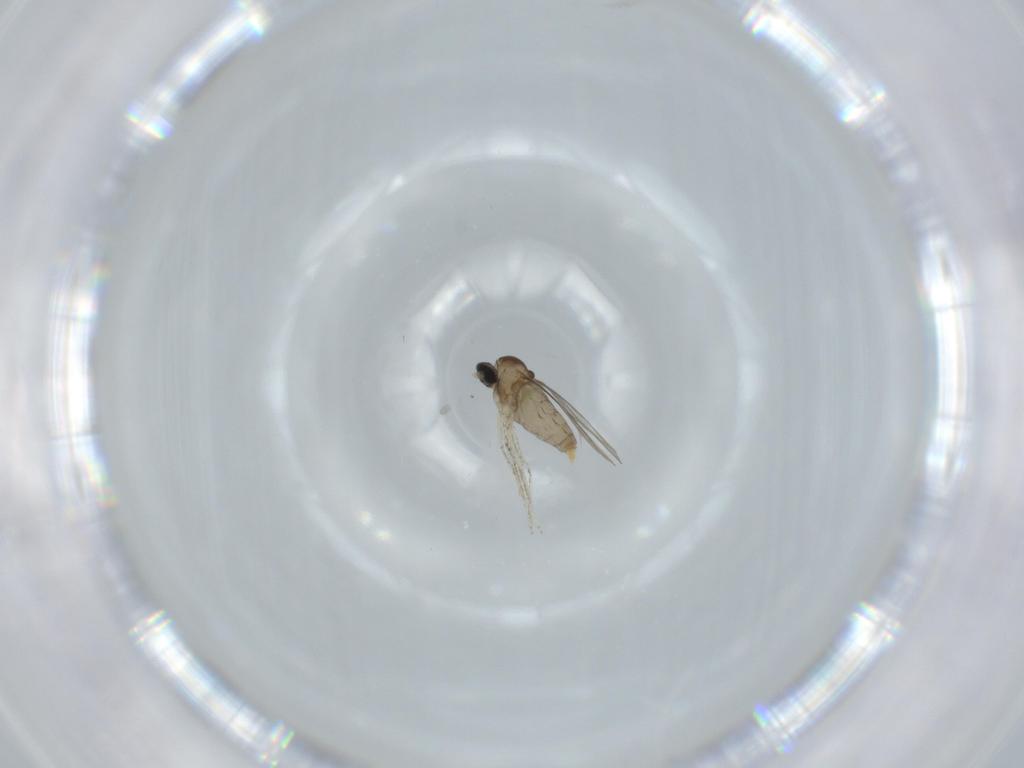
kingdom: Animalia
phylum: Arthropoda
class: Insecta
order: Diptera
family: Cecidomyiidae
